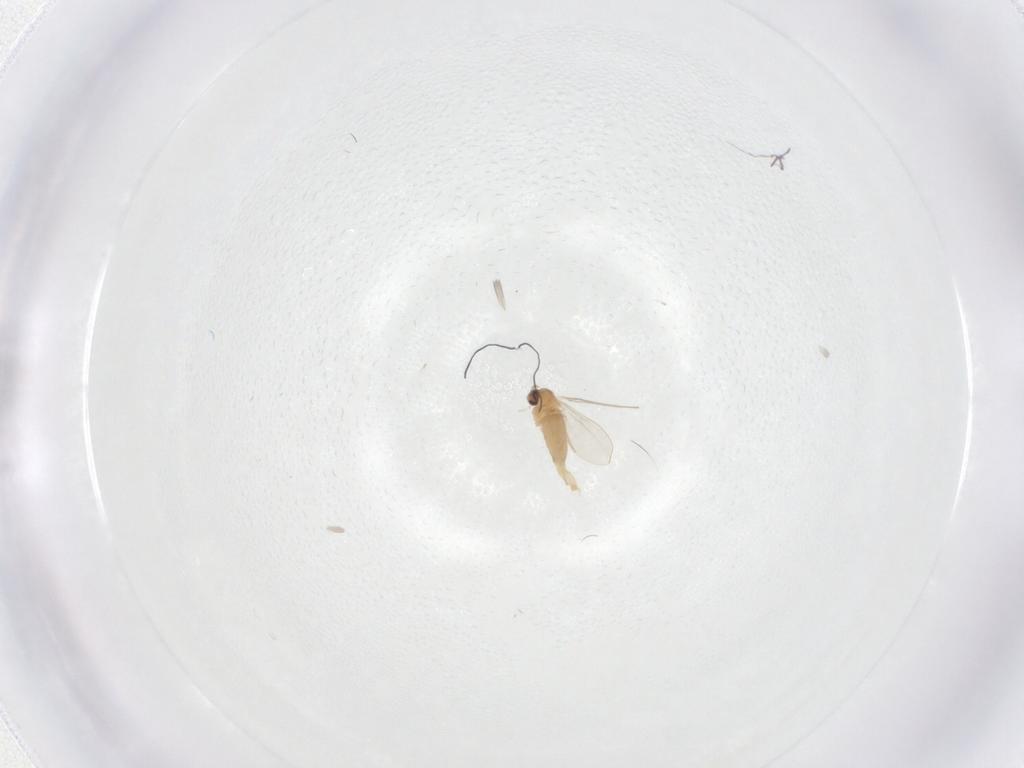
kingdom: Animalia
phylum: Arthropoda
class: Insecta
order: Diptera
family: Limoniidae
